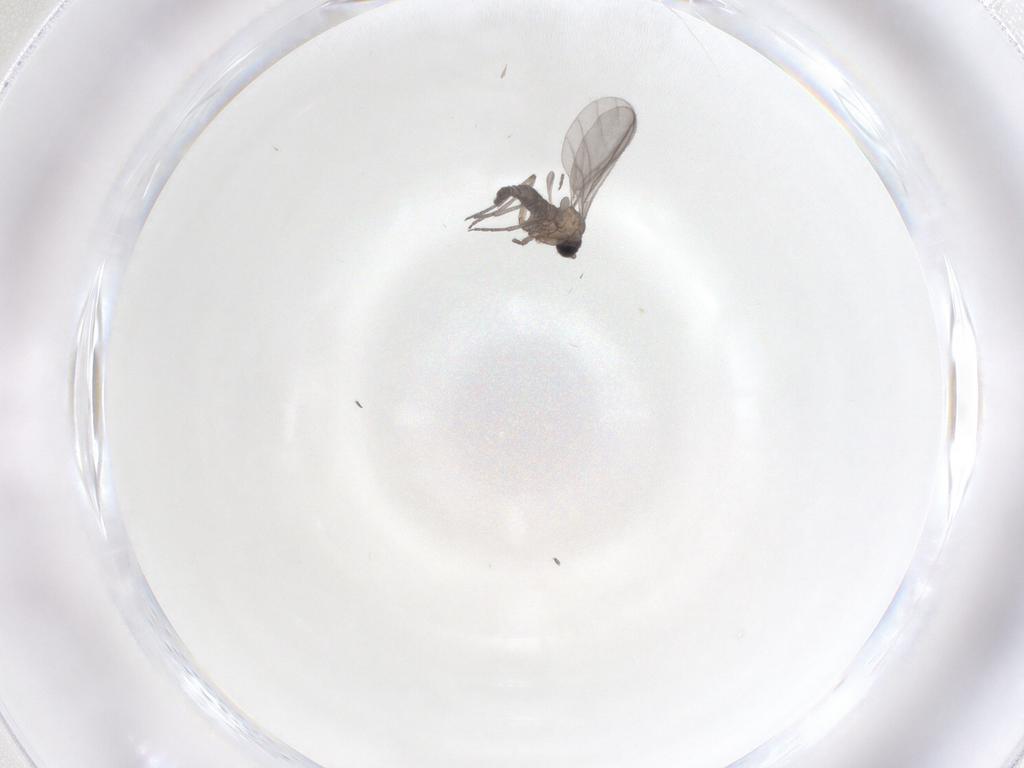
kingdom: Animalia
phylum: Arthropoda
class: Insecta
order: Diptera
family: Sciaridae
